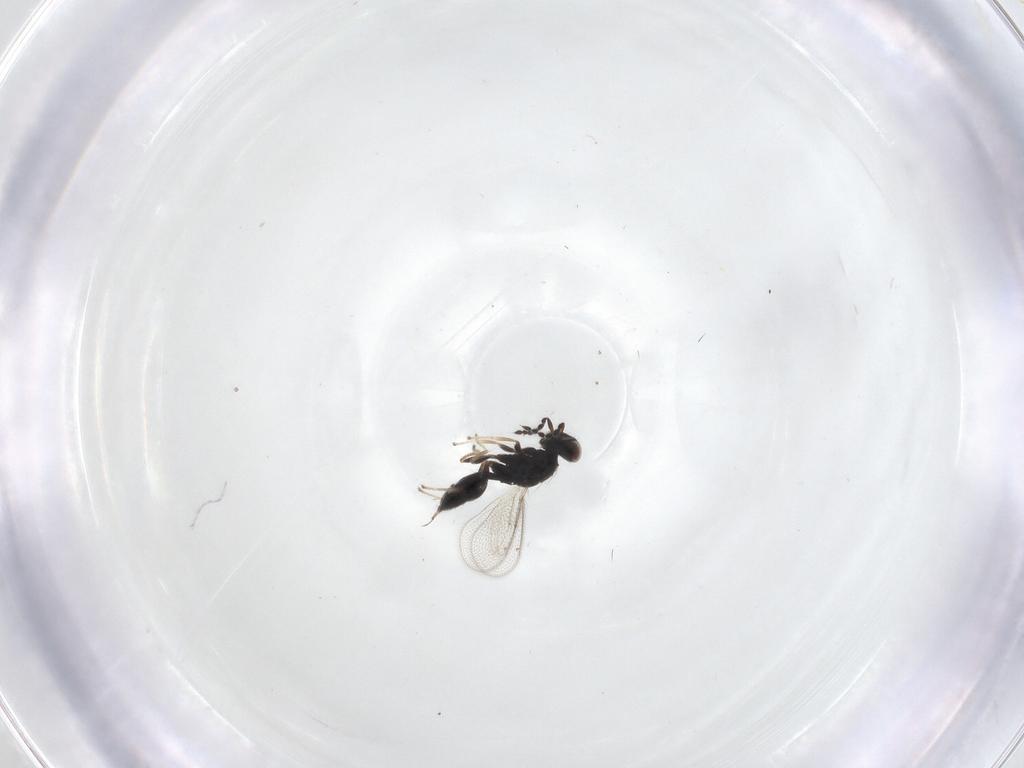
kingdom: Animalia
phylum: Arthropoda
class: Insecta
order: Hymenoptera
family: Eulophidae
